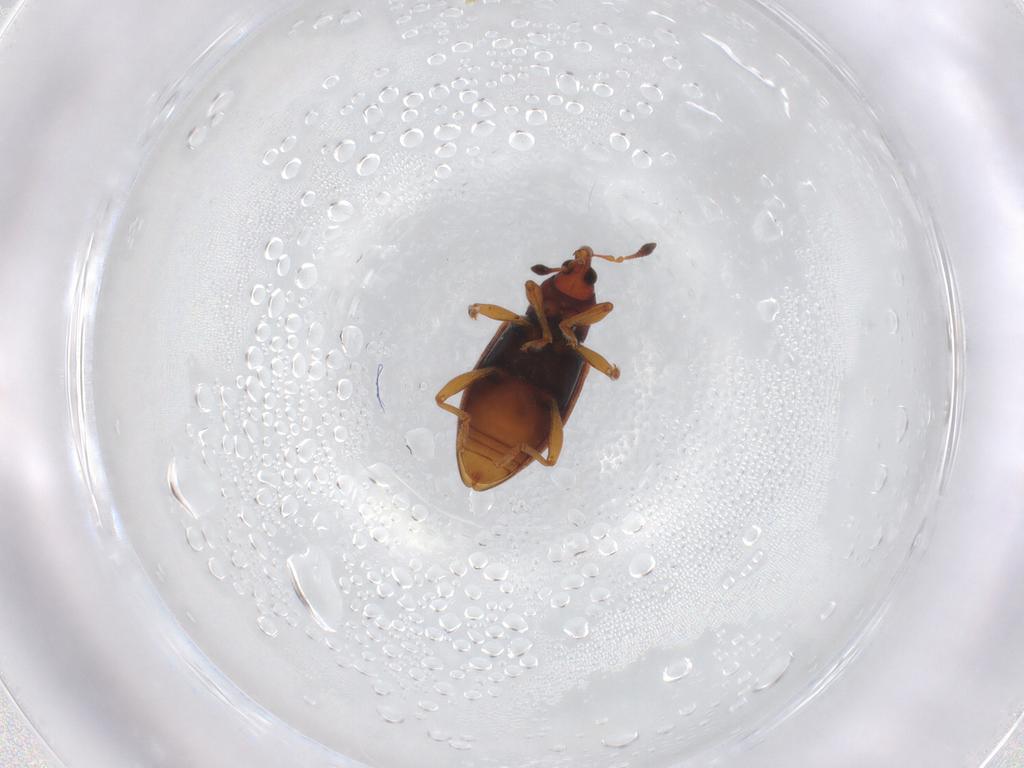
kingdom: Animalia
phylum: Arthropoda
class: Insecta
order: Coleoptera
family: Curculionidae
